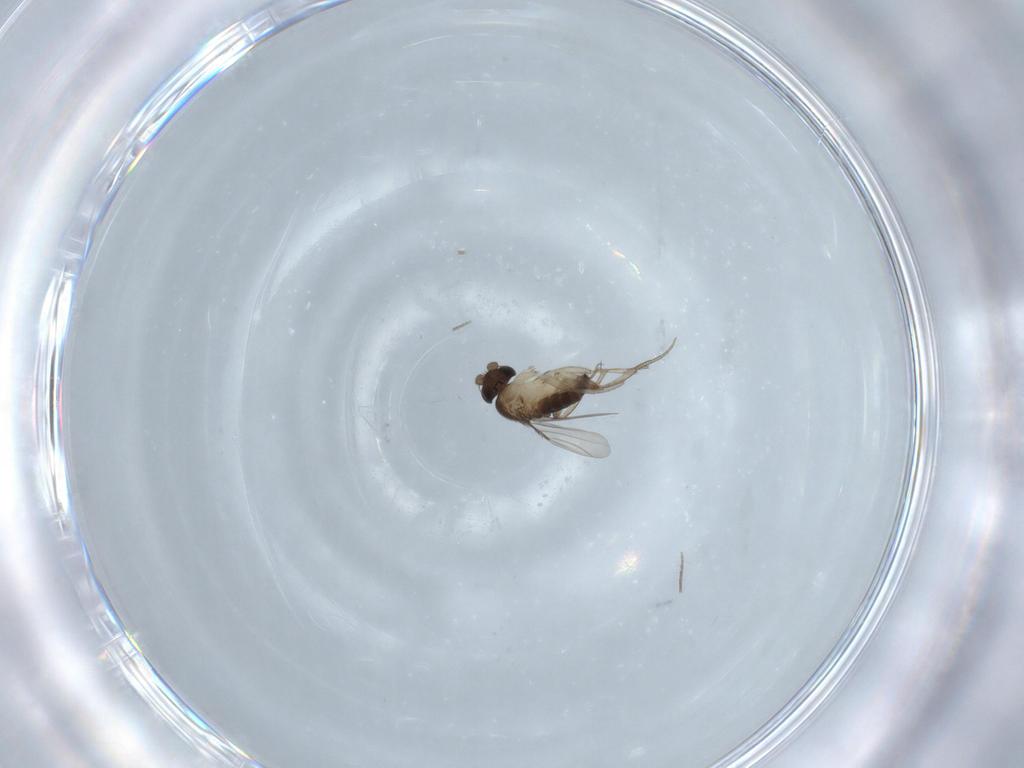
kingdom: Animalia
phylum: Arthropoda
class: Insecta
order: Diptera
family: Phoridae
